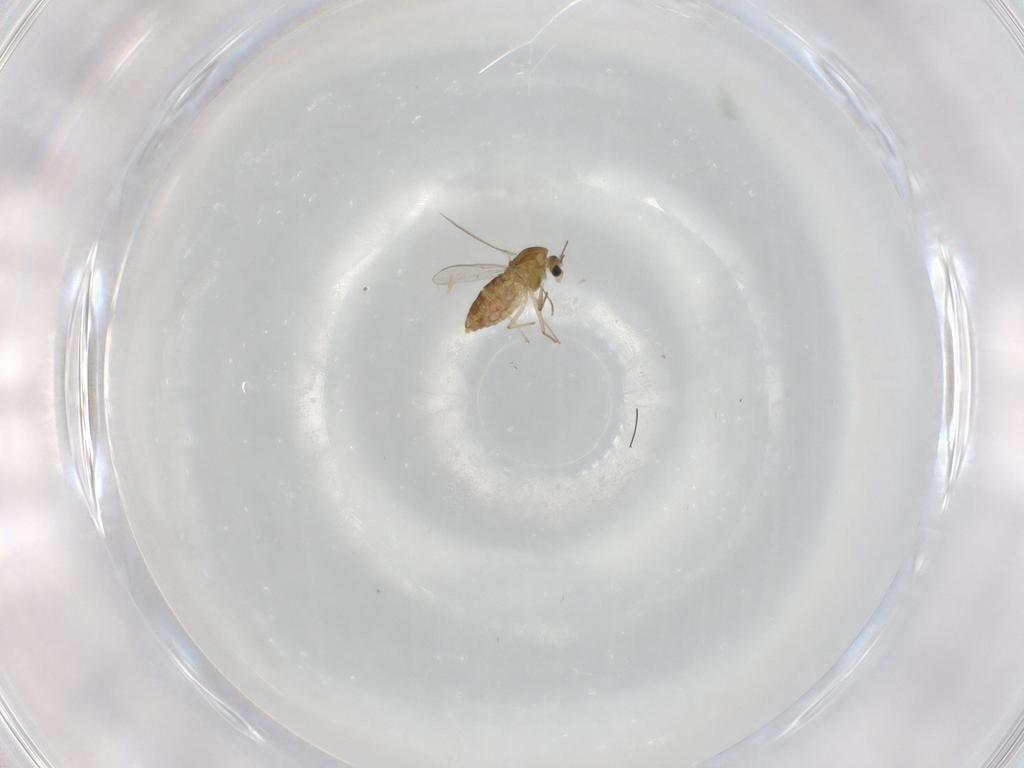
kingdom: Animalia
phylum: Arthropoda
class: Insecta
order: Diptera
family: Chironomidae
